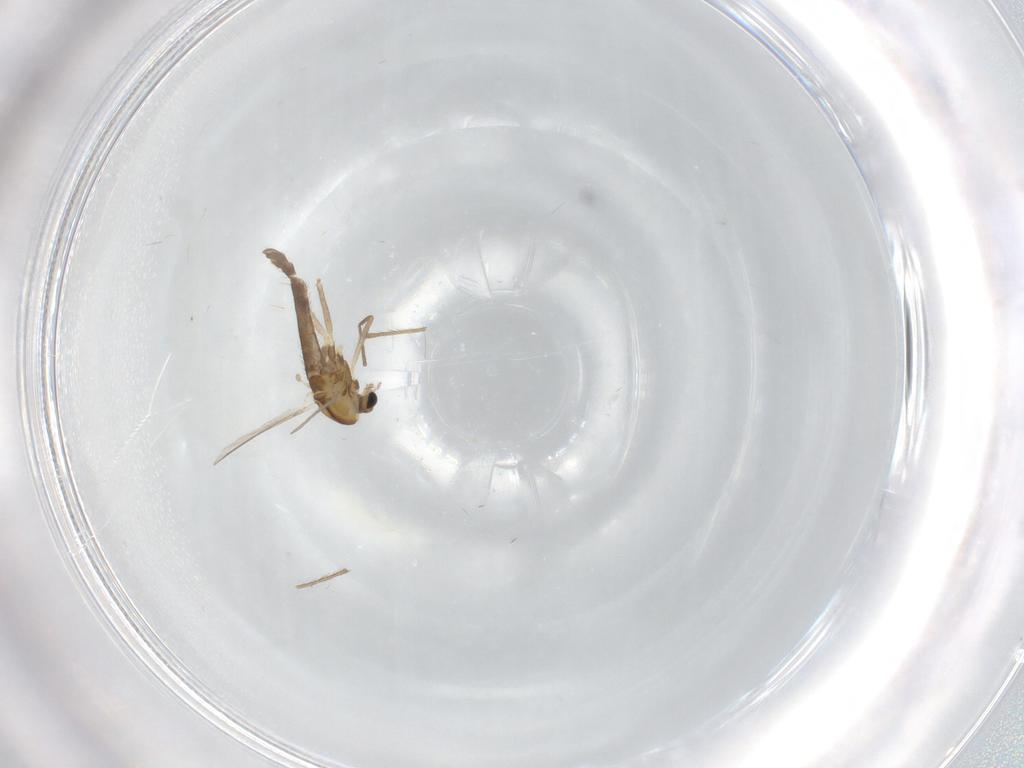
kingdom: Animalia
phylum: Arthropoda
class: Insecta
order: Diptera
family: Chironomidae
